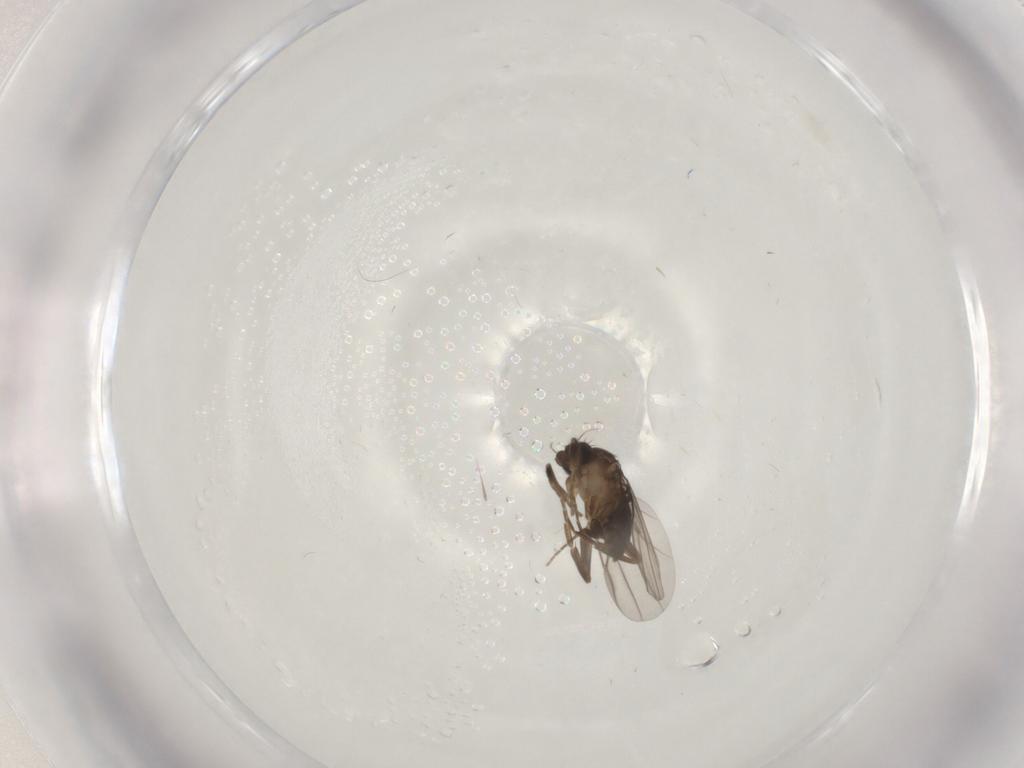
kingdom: Animalia
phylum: Arthropoda
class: Insecta
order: Diptera
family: Phoridae
